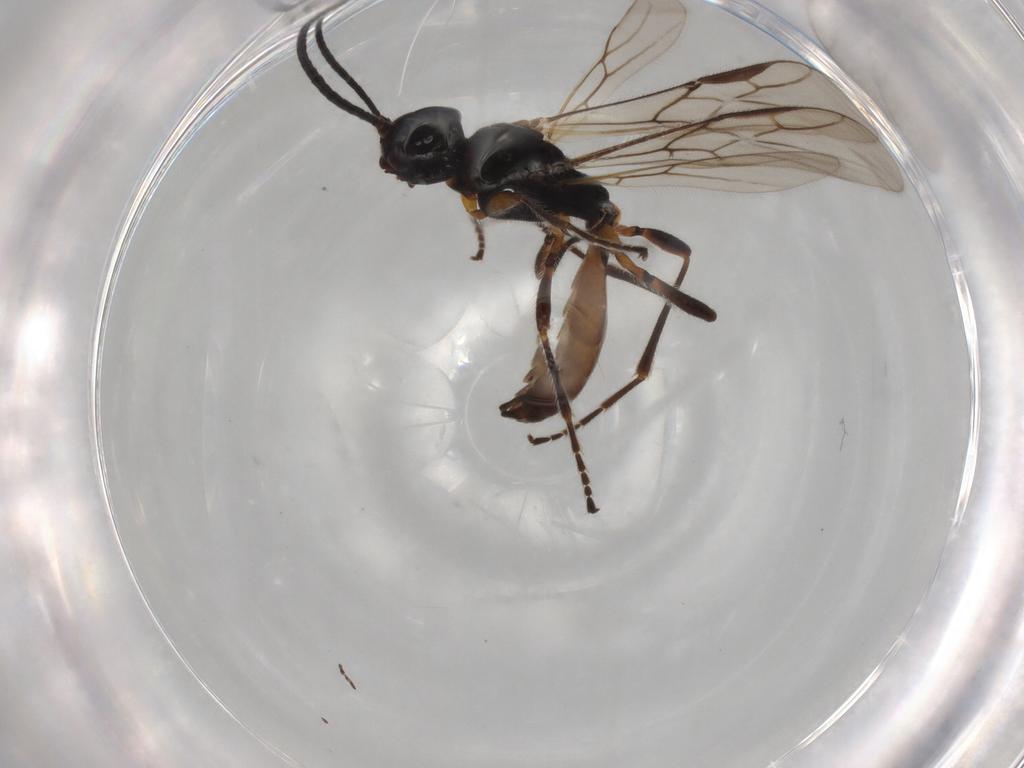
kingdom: Animalia
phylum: Arthropoda
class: Insecta
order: Hymenoptera
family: Braconidae
